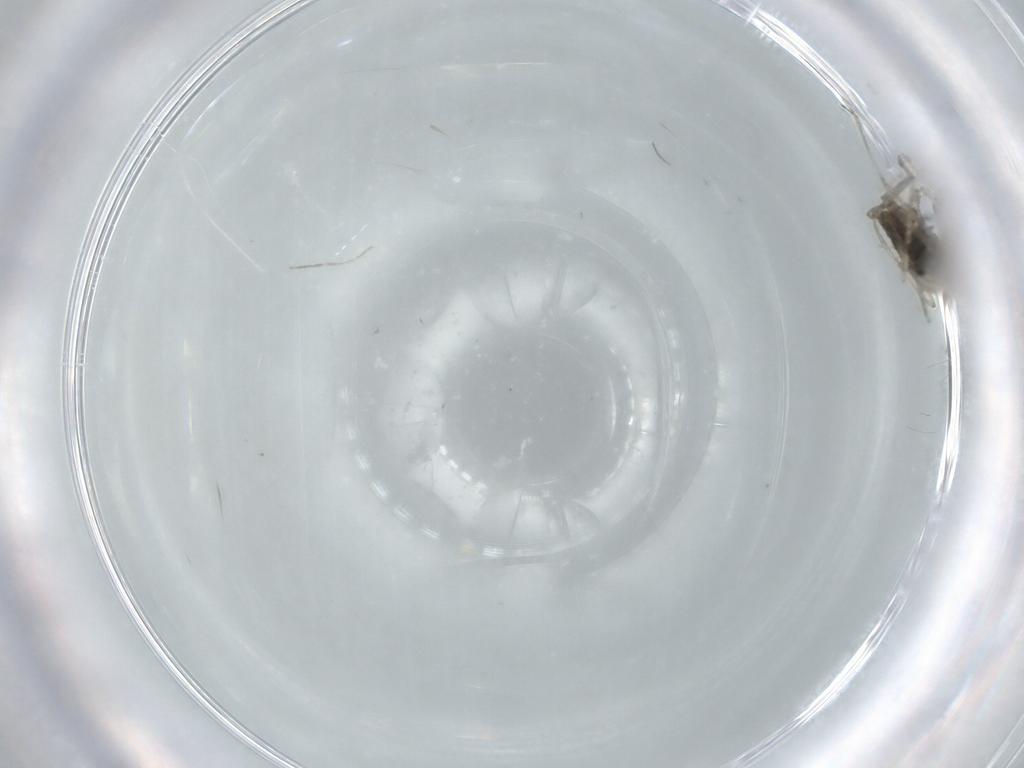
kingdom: Animalia
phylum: Arthropoda
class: Insecta
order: Diptera
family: Cecidomyiidae
